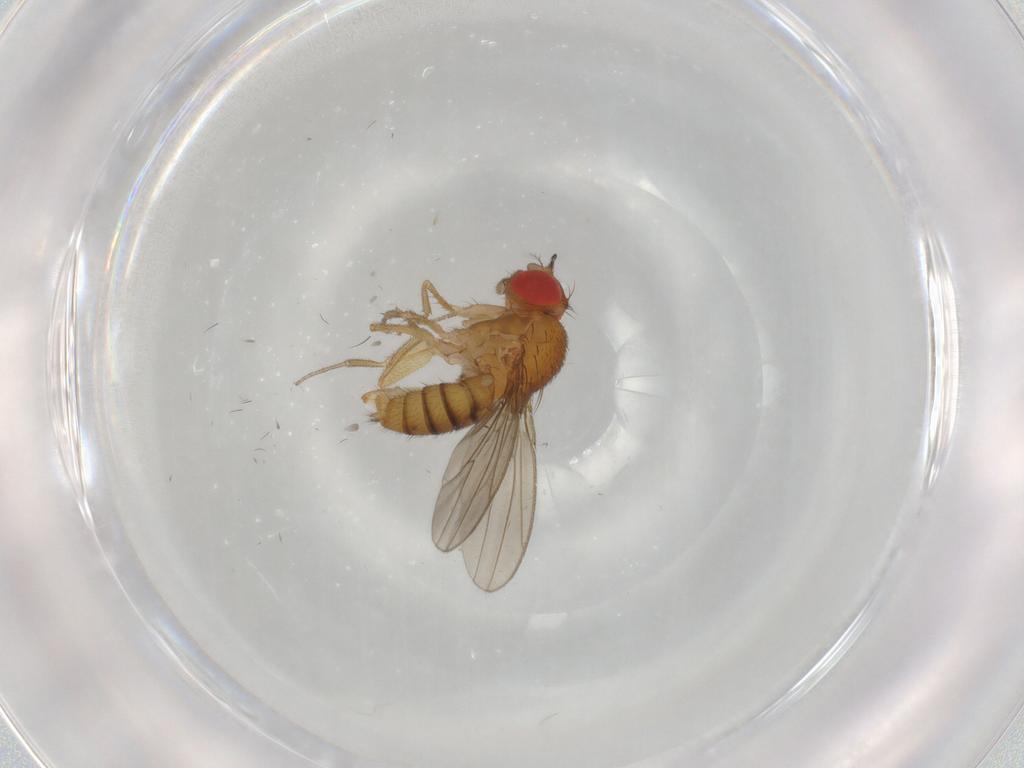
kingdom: Animalia
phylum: Arthropoda
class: Insecta
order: Diptera
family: Drosophilidae
